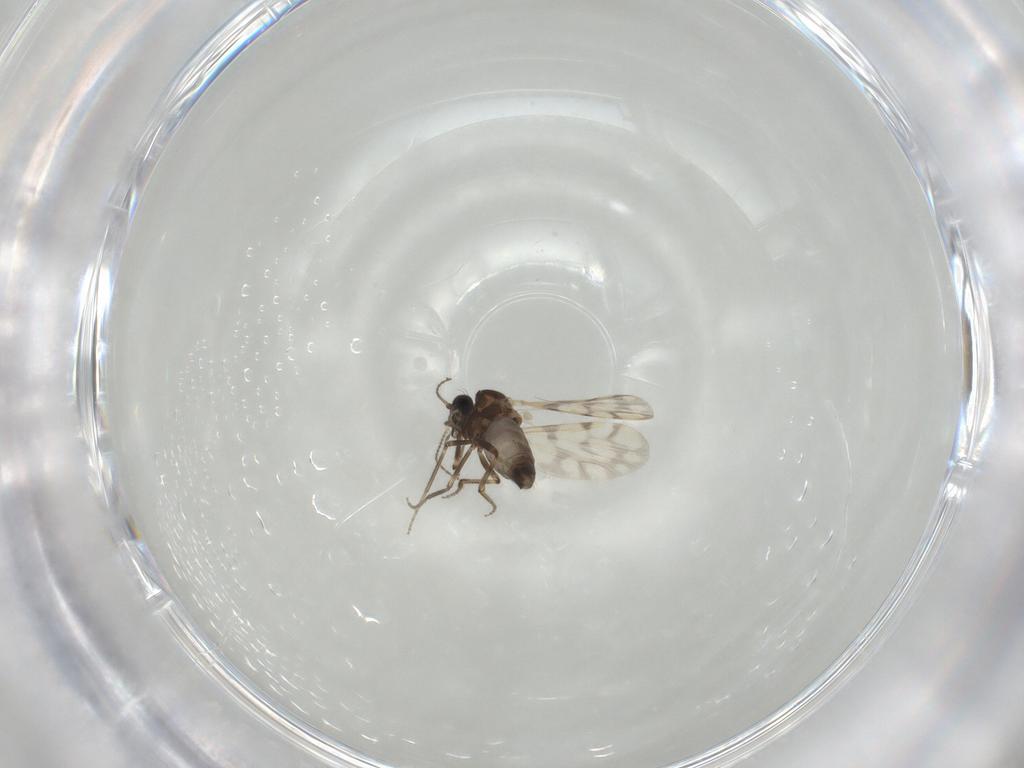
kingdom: Animalia
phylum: Arthropoda
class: Insecta
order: Diptera
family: Ceratopogonidae
